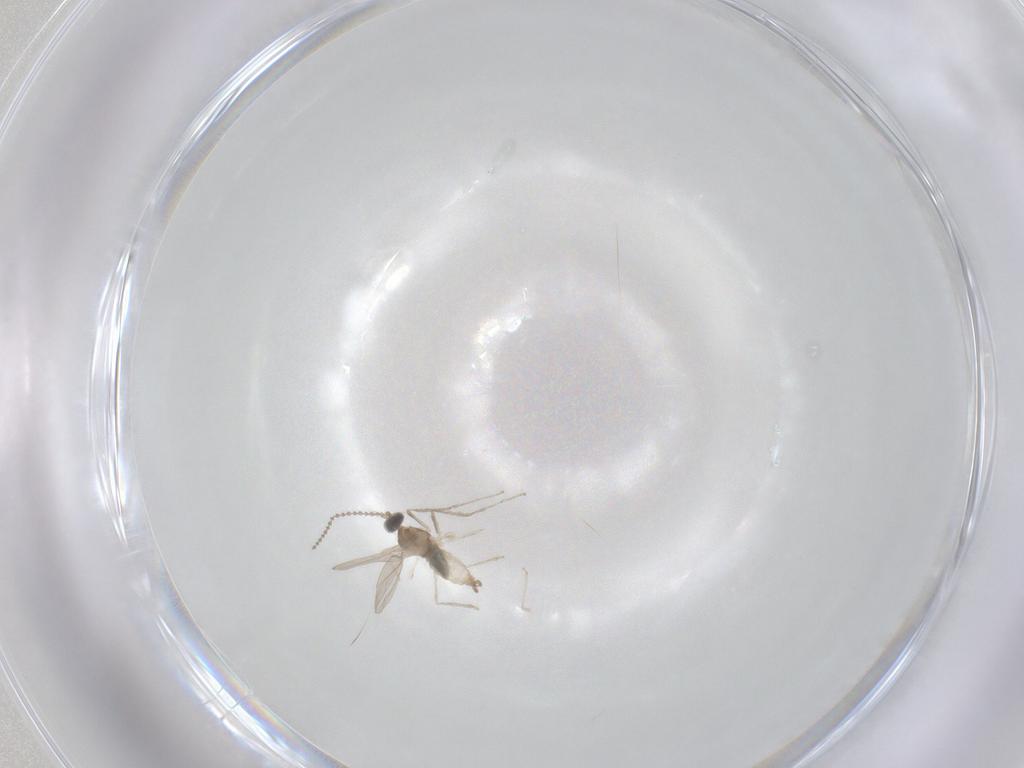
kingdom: Animalia
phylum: Arthropoda
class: Insecta
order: Diptera
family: Calliphoridae
